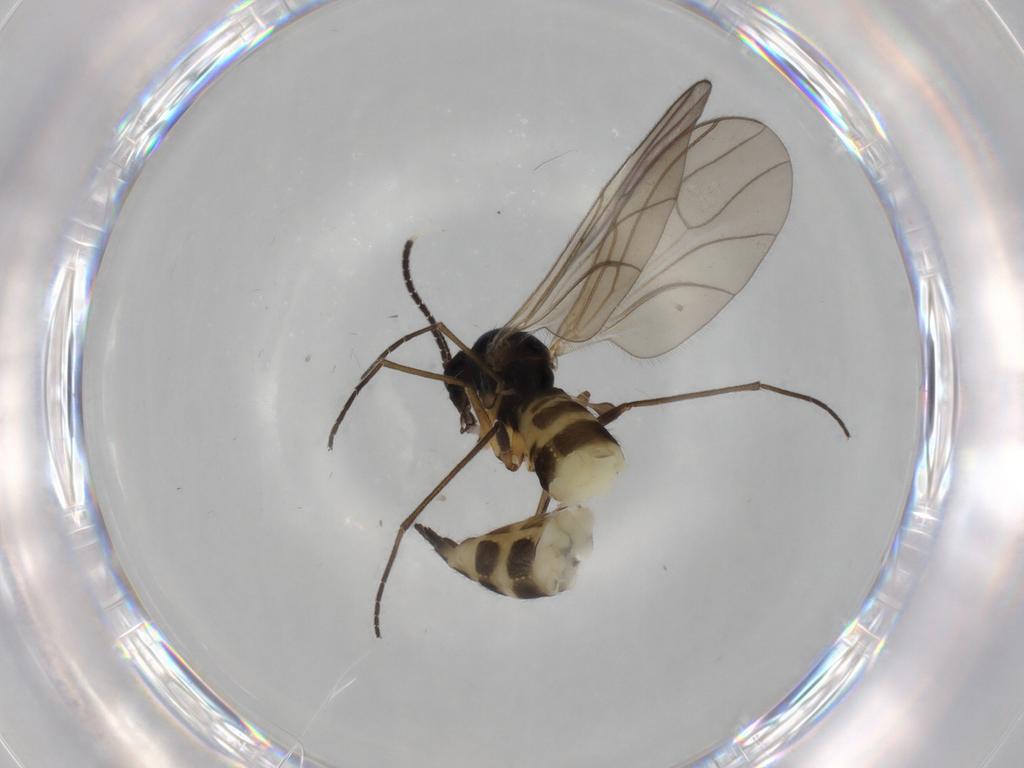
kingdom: Animalia
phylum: Arthropoda
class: Insecta
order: Diptera
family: Sciaridae
